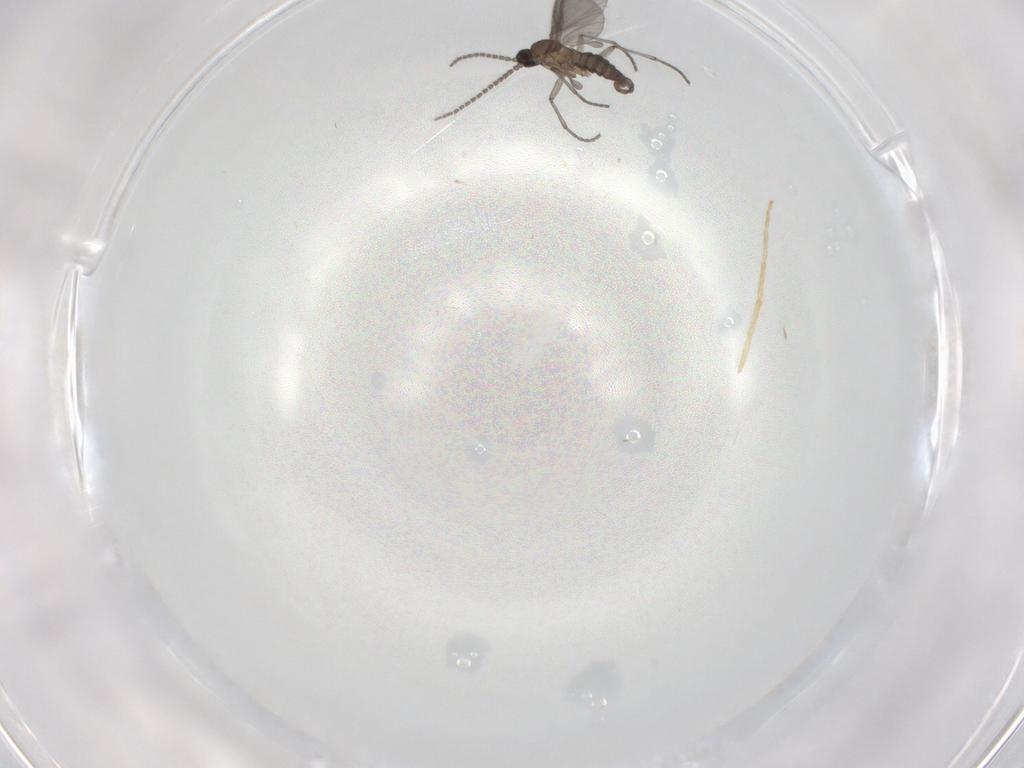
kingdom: Animalia
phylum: Arthropoda
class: Insecta
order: Diptera
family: Sciaridae
